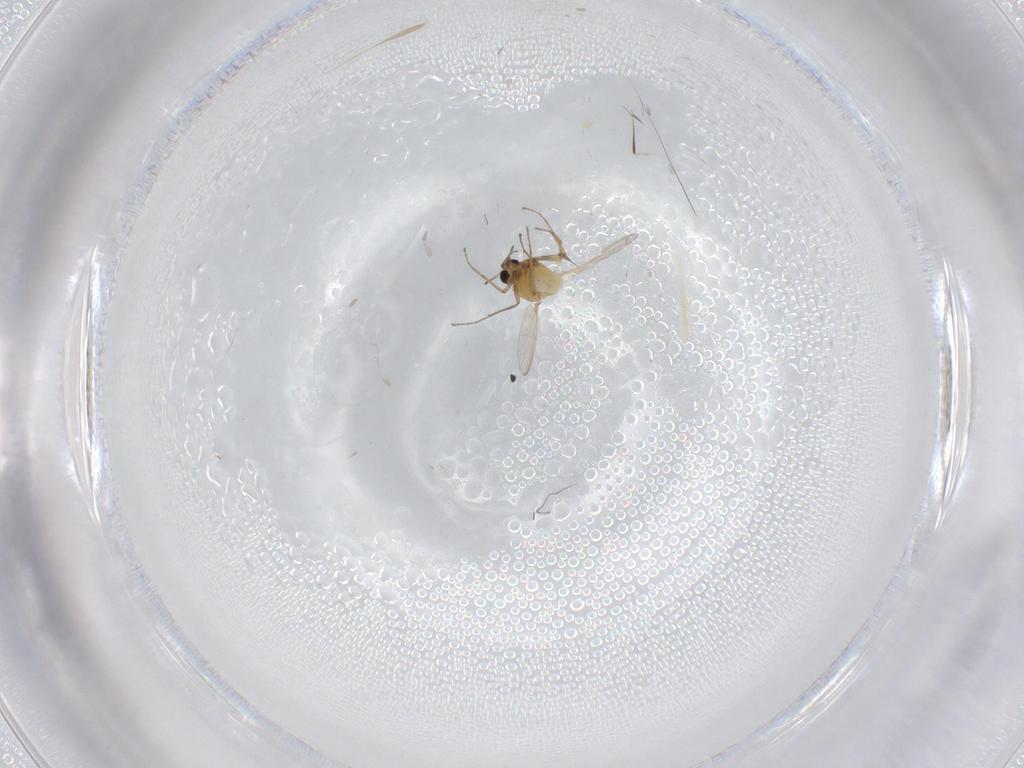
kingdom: Animalia
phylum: Arthropoda
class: Insecta
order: Diptera
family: Chironomidae
